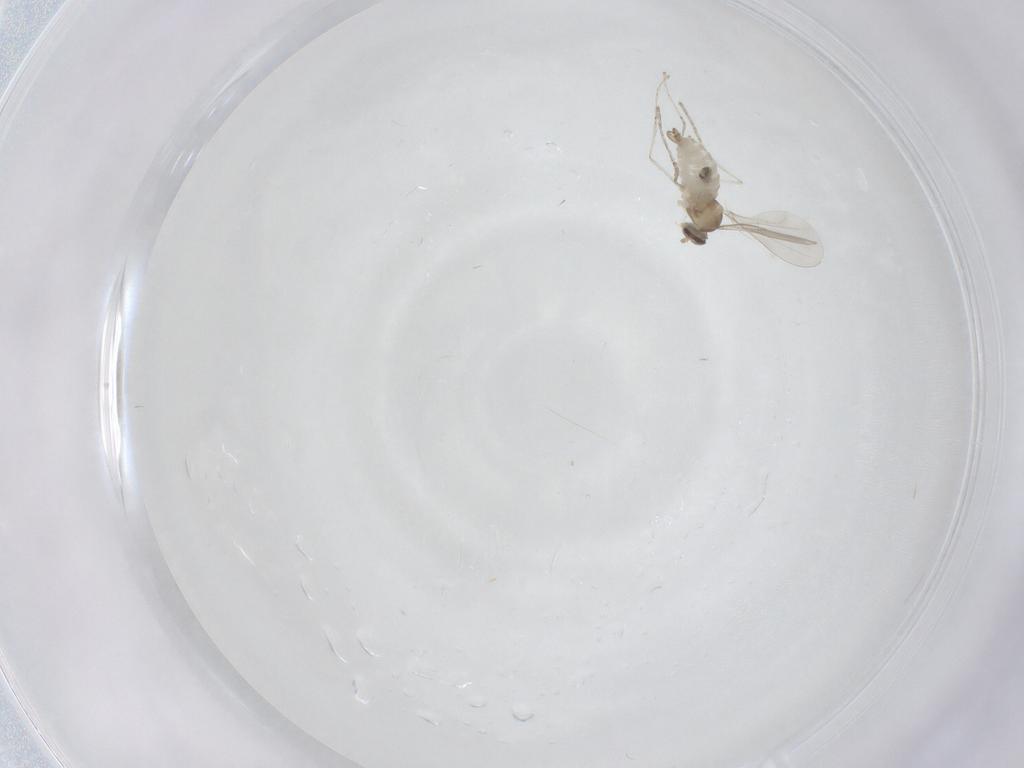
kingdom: Animalia
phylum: Arthropoda
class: Insecta
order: Diptera
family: Cecidomyiidae
